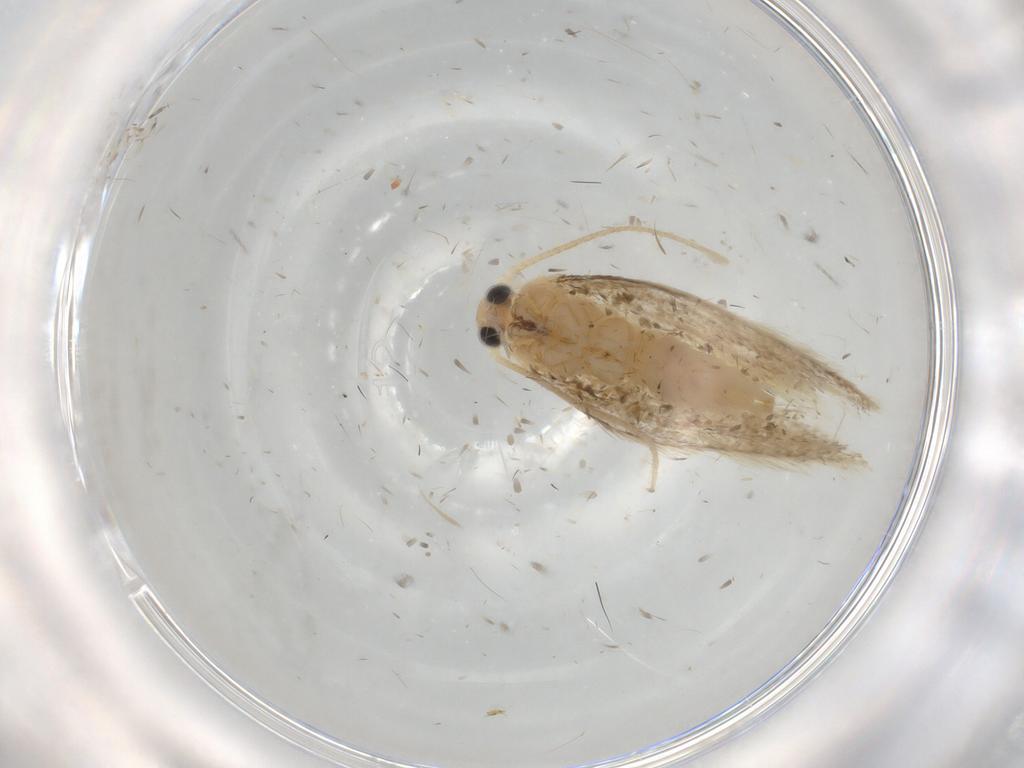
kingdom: Animalia
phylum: Arthropoda
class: Insecta
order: Lepidoptera
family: Elachistidae
